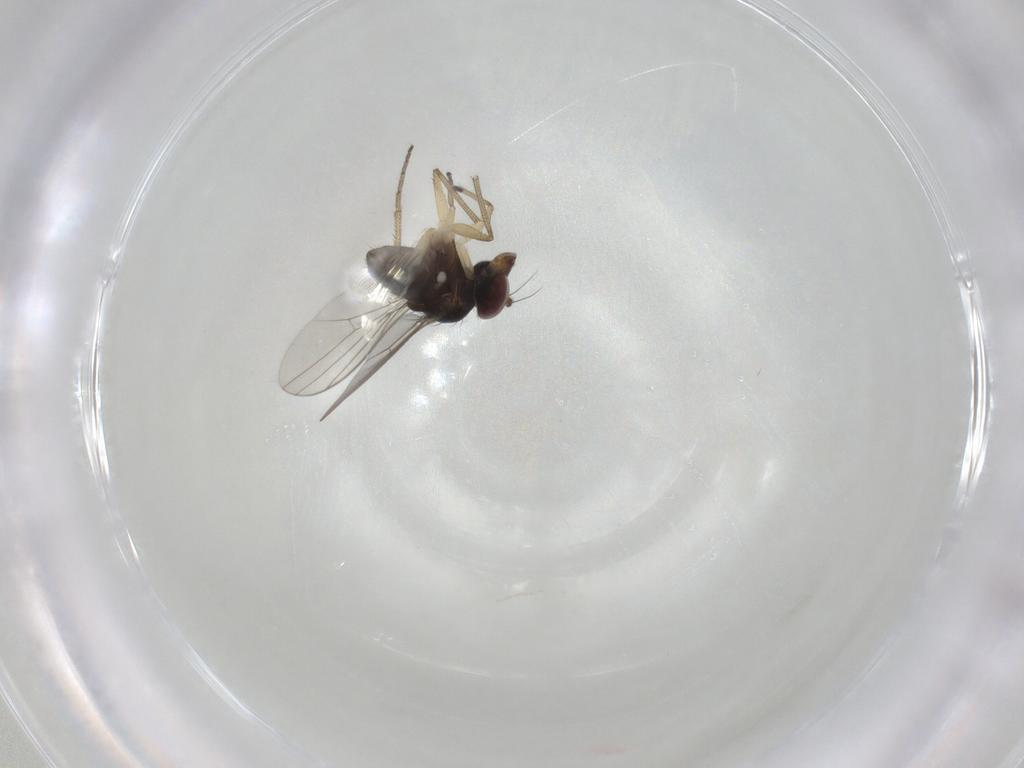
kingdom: Animalia
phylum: Arthropoda
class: Insecta
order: Diptera
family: Dolichopodidae
